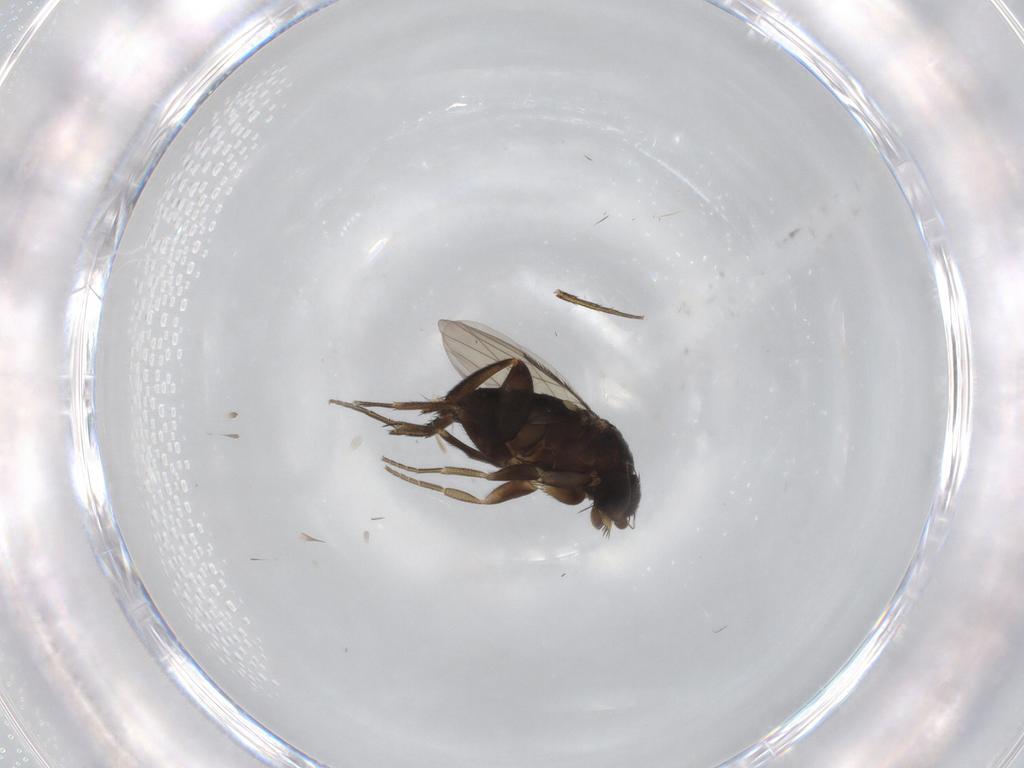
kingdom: Animalia
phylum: Arthropoda
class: Insecta
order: Diptera
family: Phoridae
